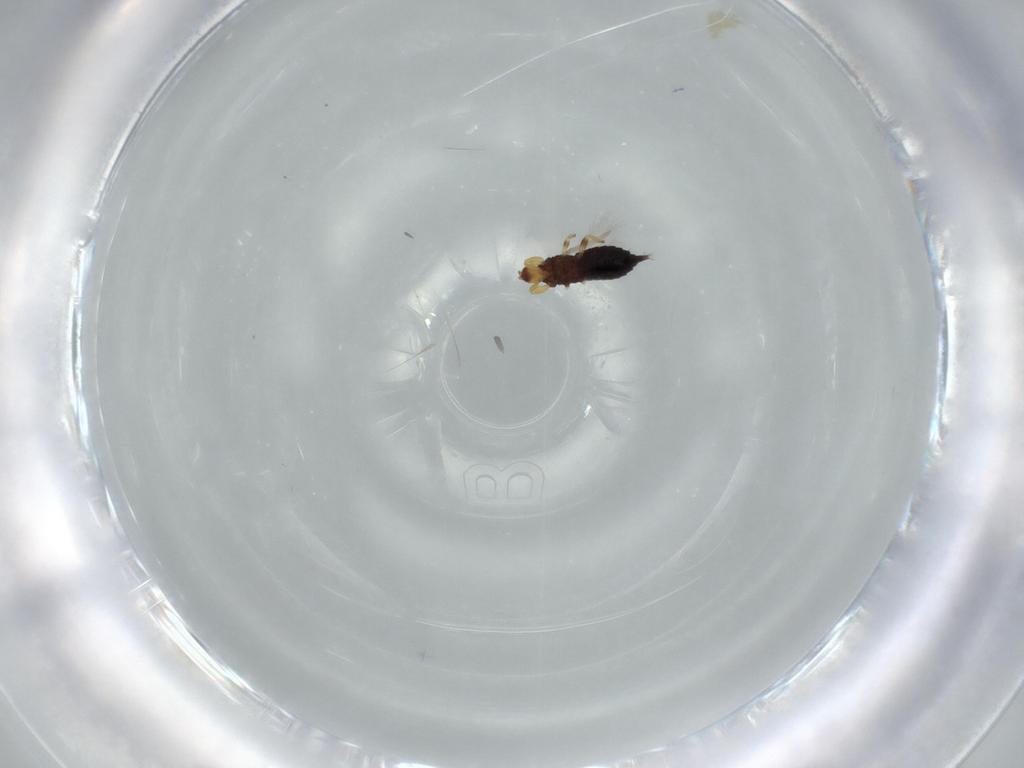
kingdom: Animalia
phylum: Arthropoda
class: Insecta
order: Thysanoptera
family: Phlaeothripidae
